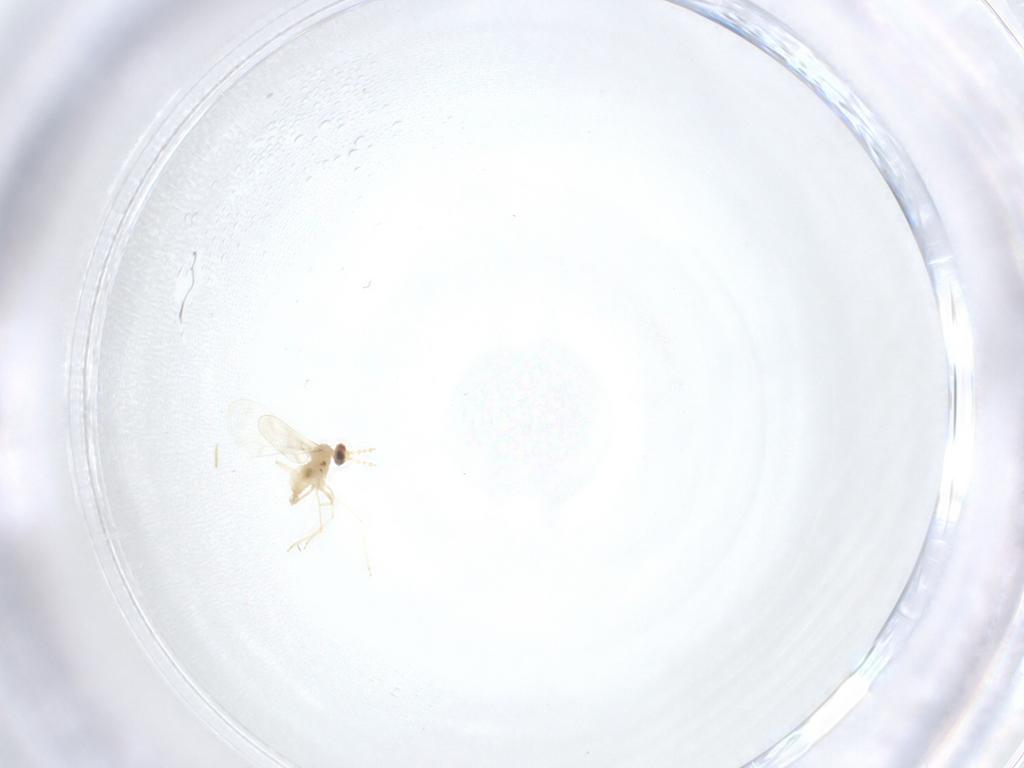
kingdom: Animalia
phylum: Arthropoda
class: Insecta
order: Diptera
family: Cecidomyiidae
